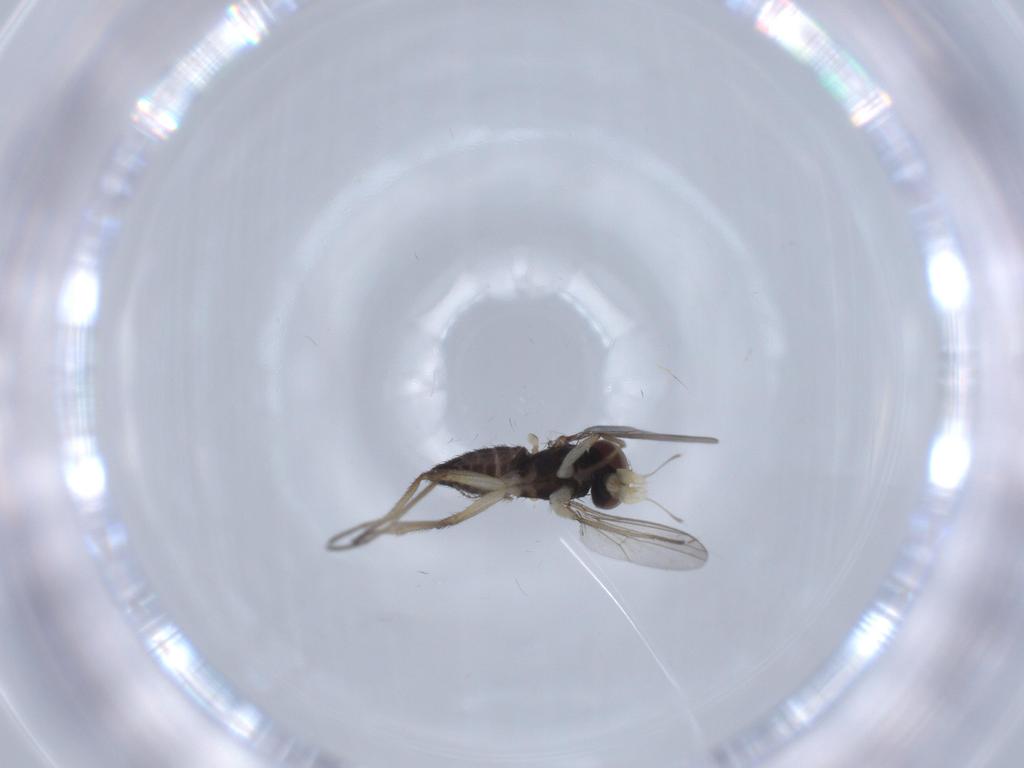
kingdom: Animalia
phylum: Arthropoda
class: Insecta
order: Diptera
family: Dolichopodidae
